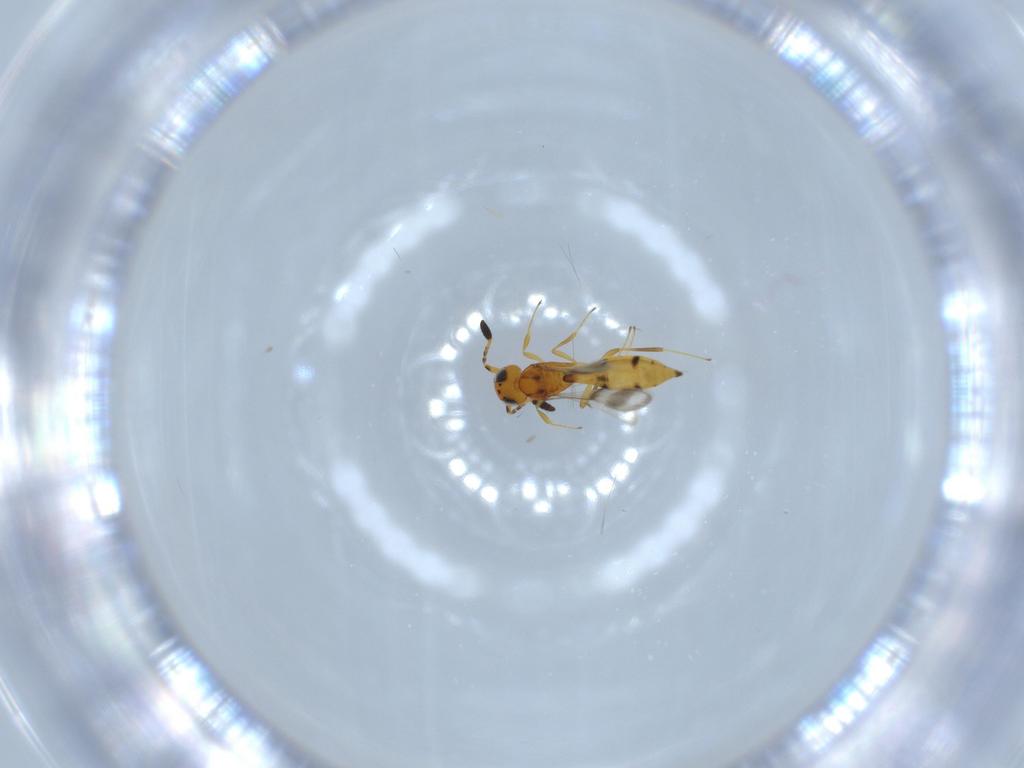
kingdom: Animalia
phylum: Arthropoda
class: Insecta
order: Hymenoptera
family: Scelionidae
